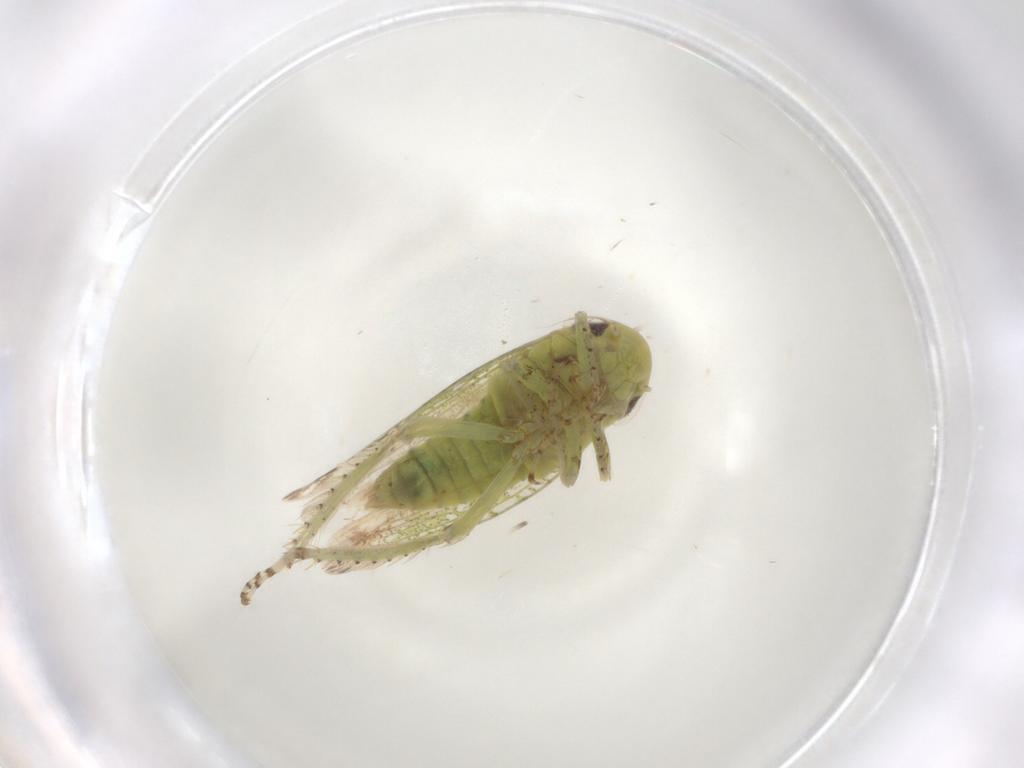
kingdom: Animalia
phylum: Arthropoda
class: Insecta
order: Hemiptera
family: Cicadellidae
